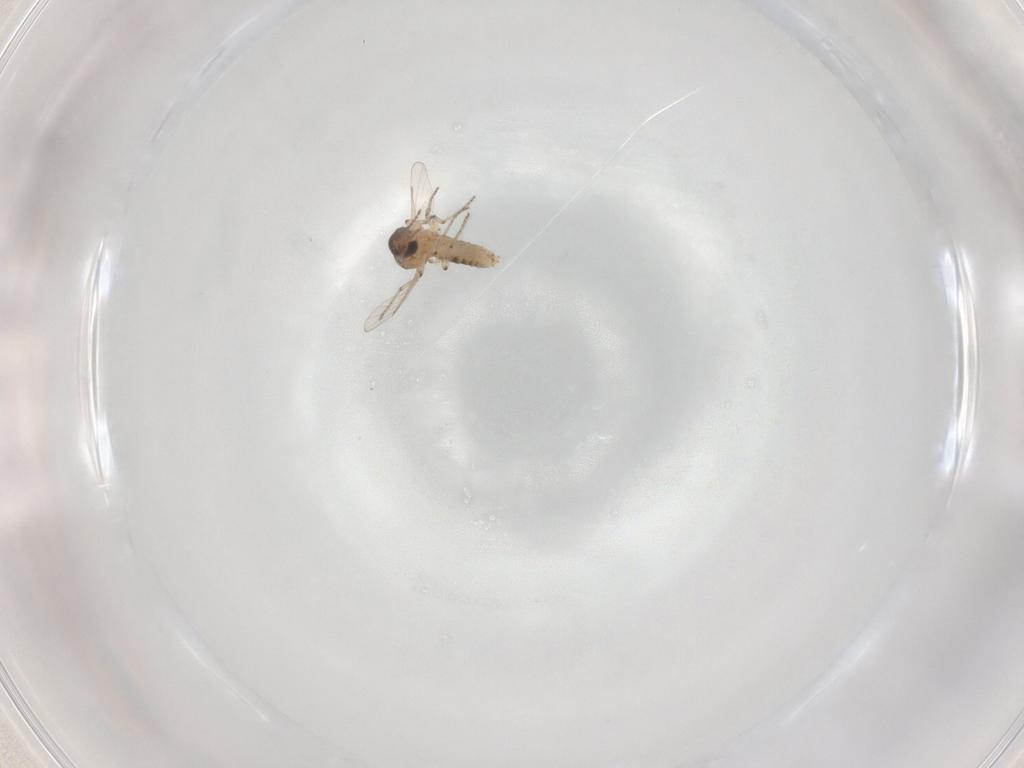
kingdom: Animalia
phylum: Arthropoda
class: Insecta
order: Diptera
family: Ceratopogonidae
